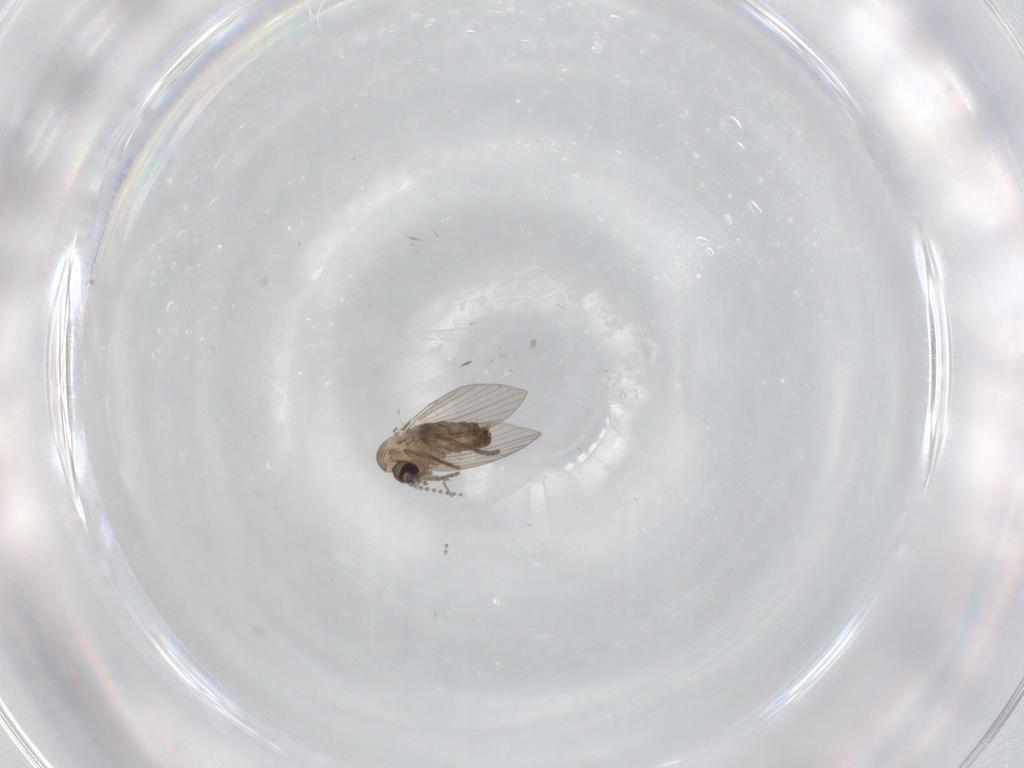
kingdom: Animalia
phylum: Arthropoda
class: Insecta
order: Diptera
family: Psychodidae
